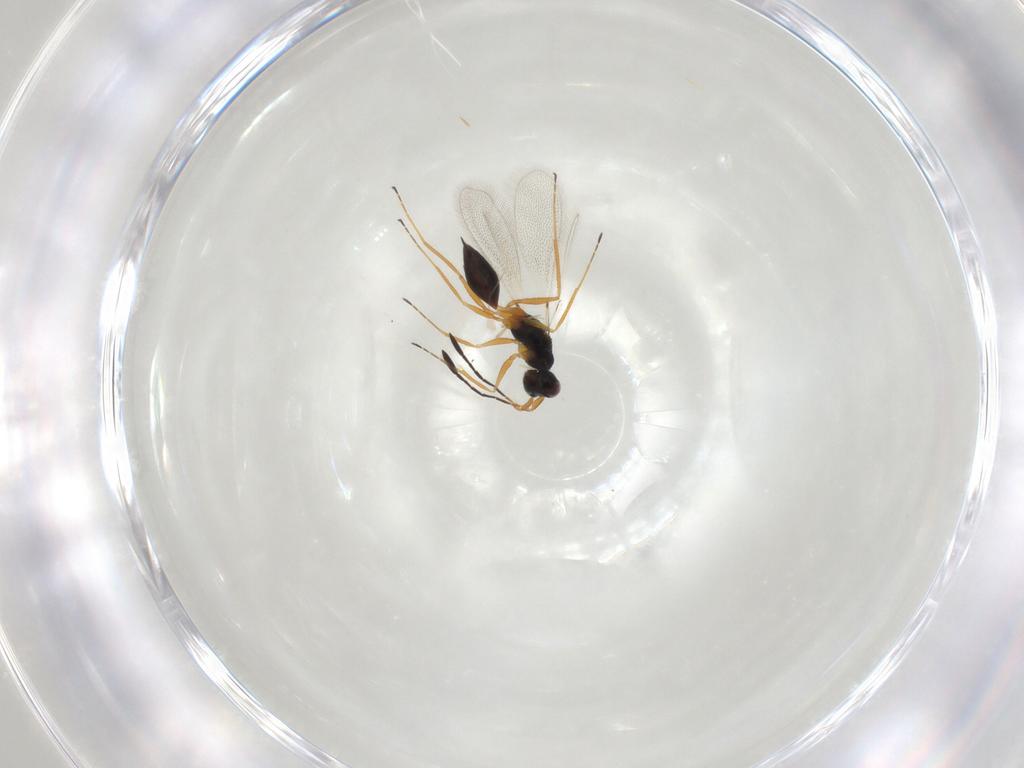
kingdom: Animalia
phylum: Arthropoda
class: Insecta
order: Hymenoptera
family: Mymaridae
